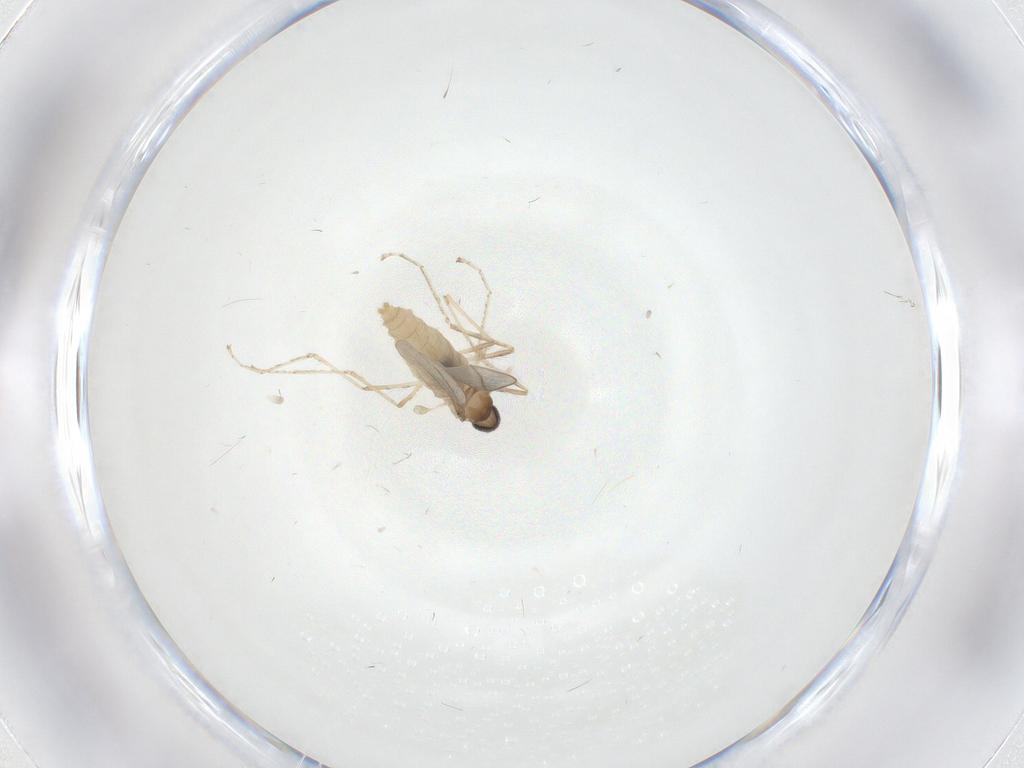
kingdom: Animalia
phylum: Arthropoda
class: Insecta
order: Diptera
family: Cecidomyiidae
